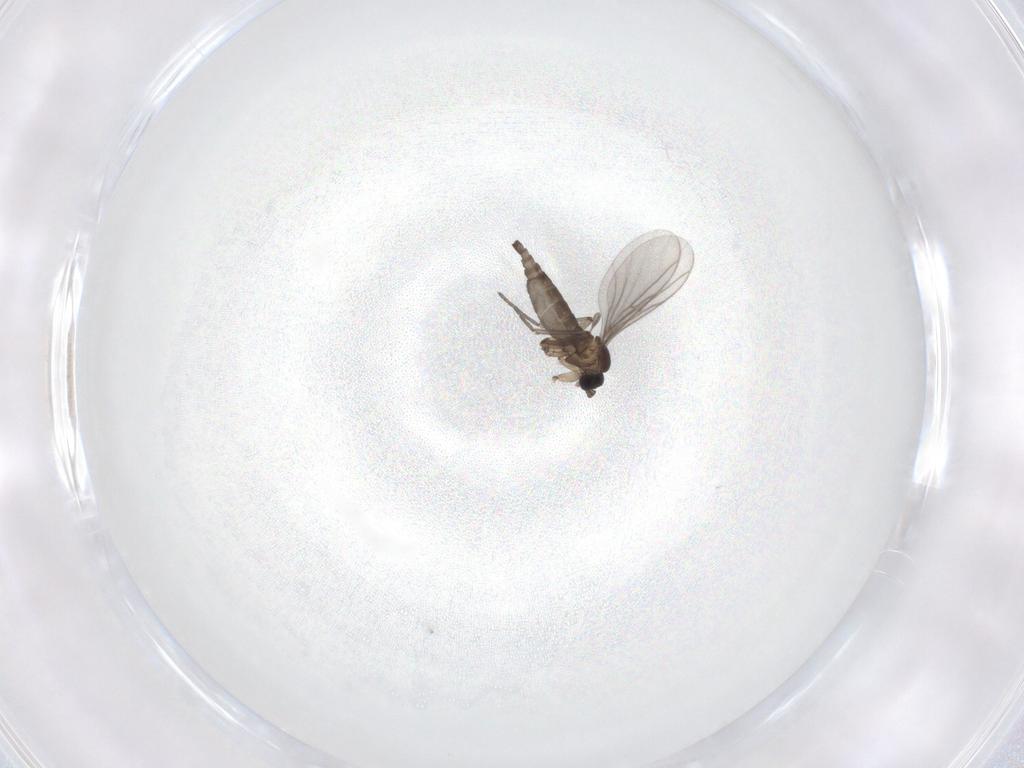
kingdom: Animalia
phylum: Arthropoda
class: Insecta
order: Diptera
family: Sciaridae
